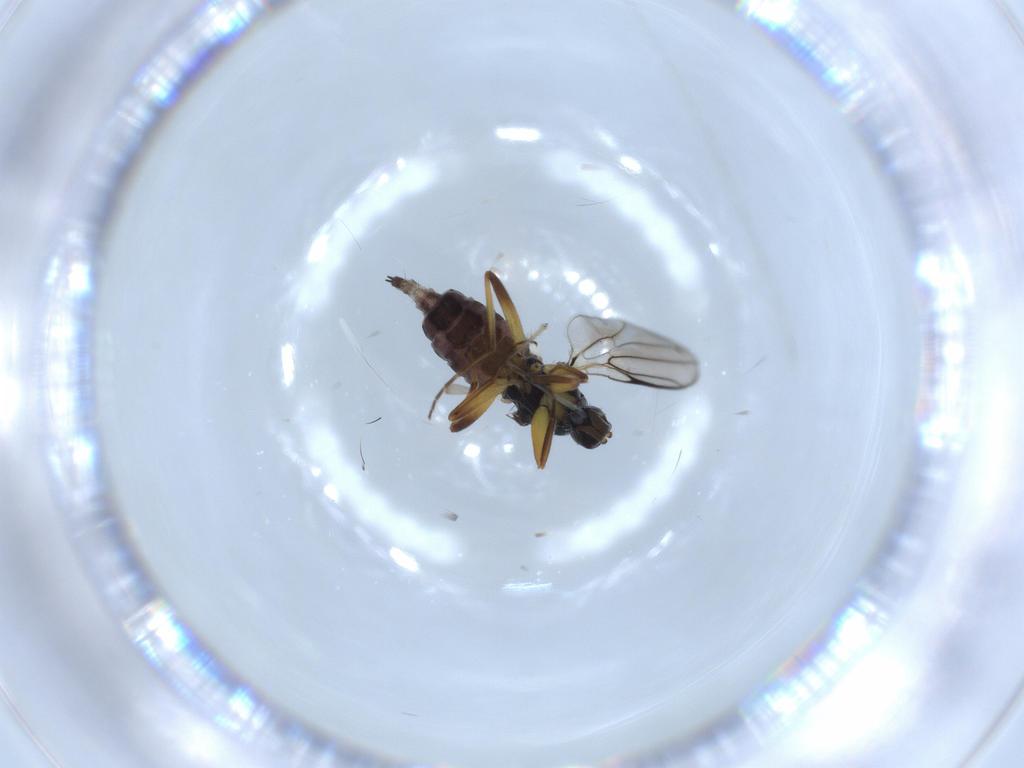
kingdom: Animalia
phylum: Arthropoda
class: Insecta
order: Diptera
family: Hybotidae
